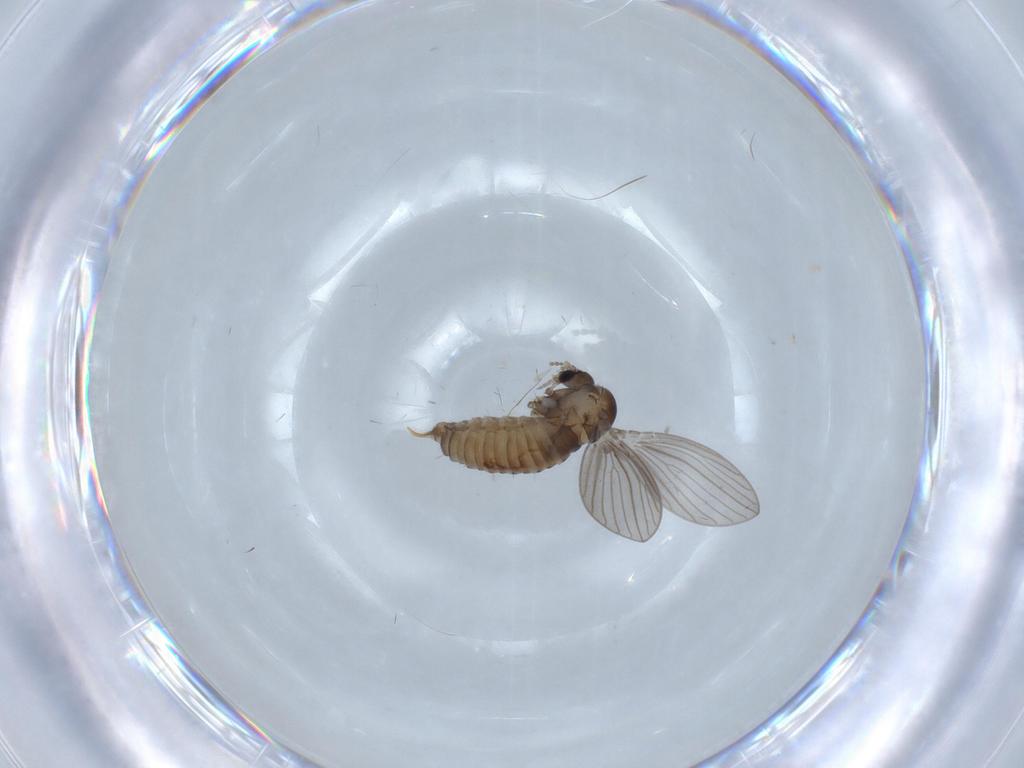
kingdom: Animalia
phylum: Arthropoda
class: Insecta
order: Diptera
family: Psychodidae
